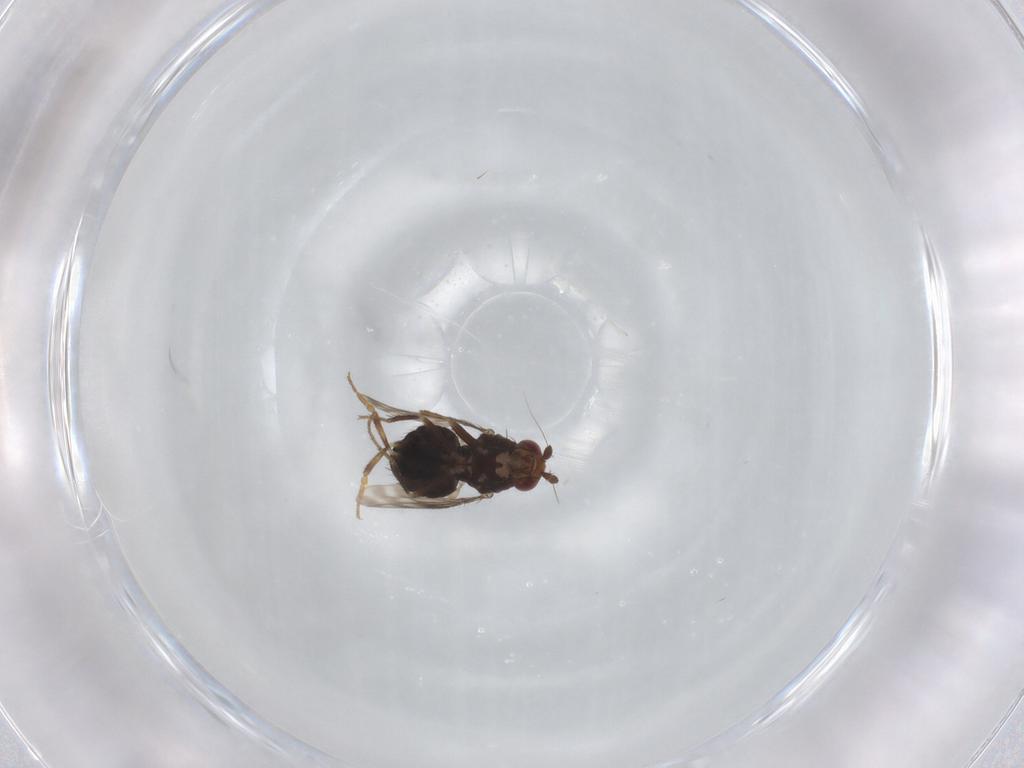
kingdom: Animalia
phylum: Arthropoda
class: Insecta
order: Diptera
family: Sphaeroceridae
